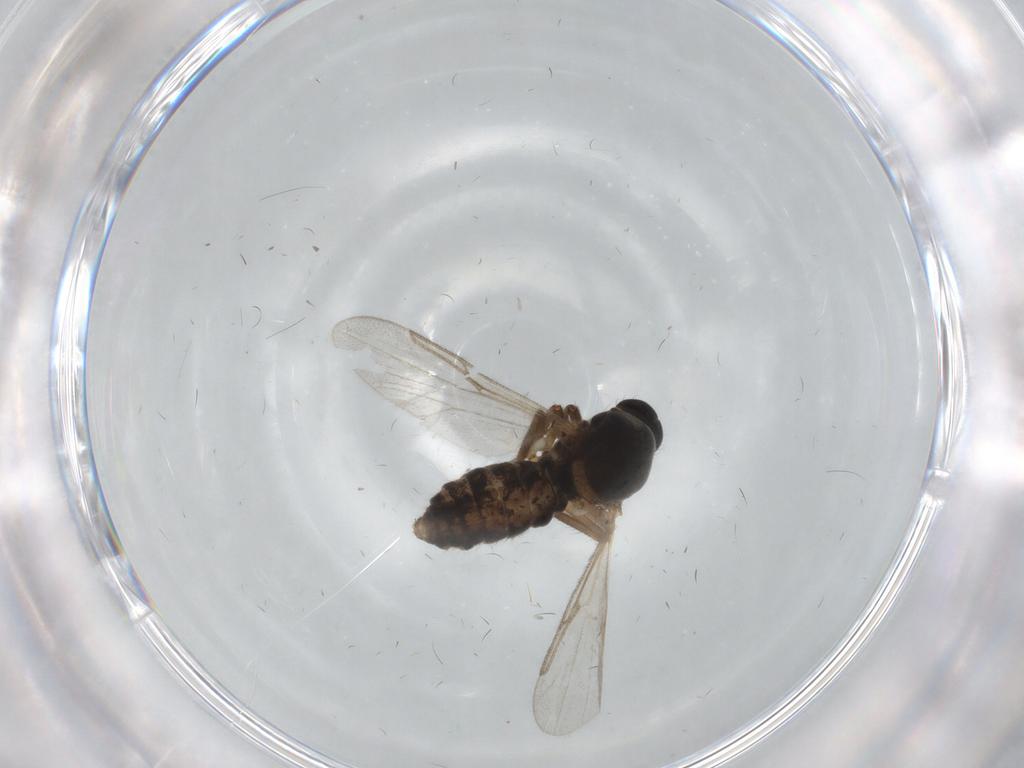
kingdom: Animalia
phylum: Arthropoda
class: Insecta
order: Diptera
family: Ceratopogonidae
